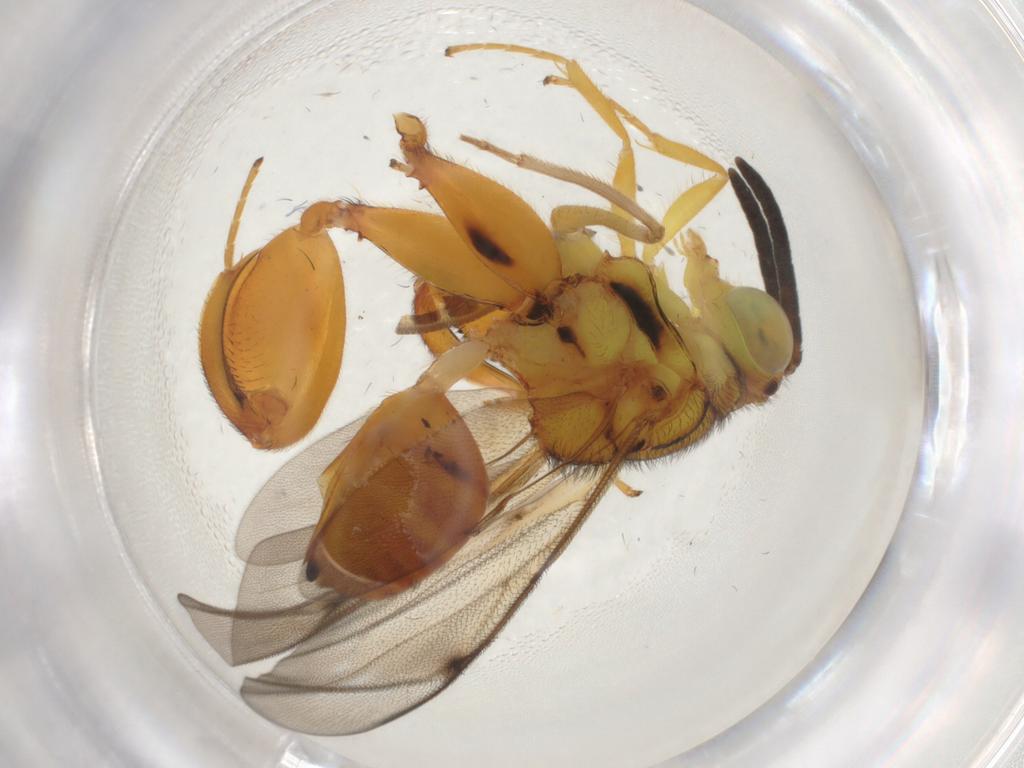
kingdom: Animalia
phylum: Arthropoda
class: Insecta
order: Hymenoptera
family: Chalcididae
